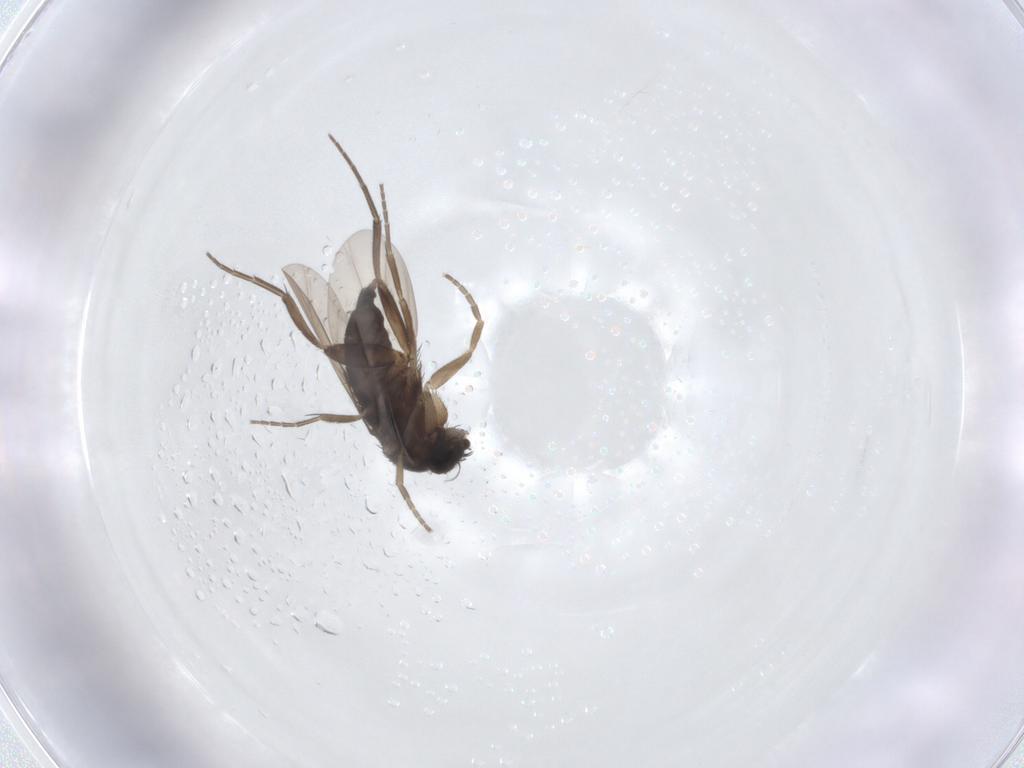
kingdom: Animalia
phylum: Arthropoda
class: Insecta
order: Diptera
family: Phoridae
